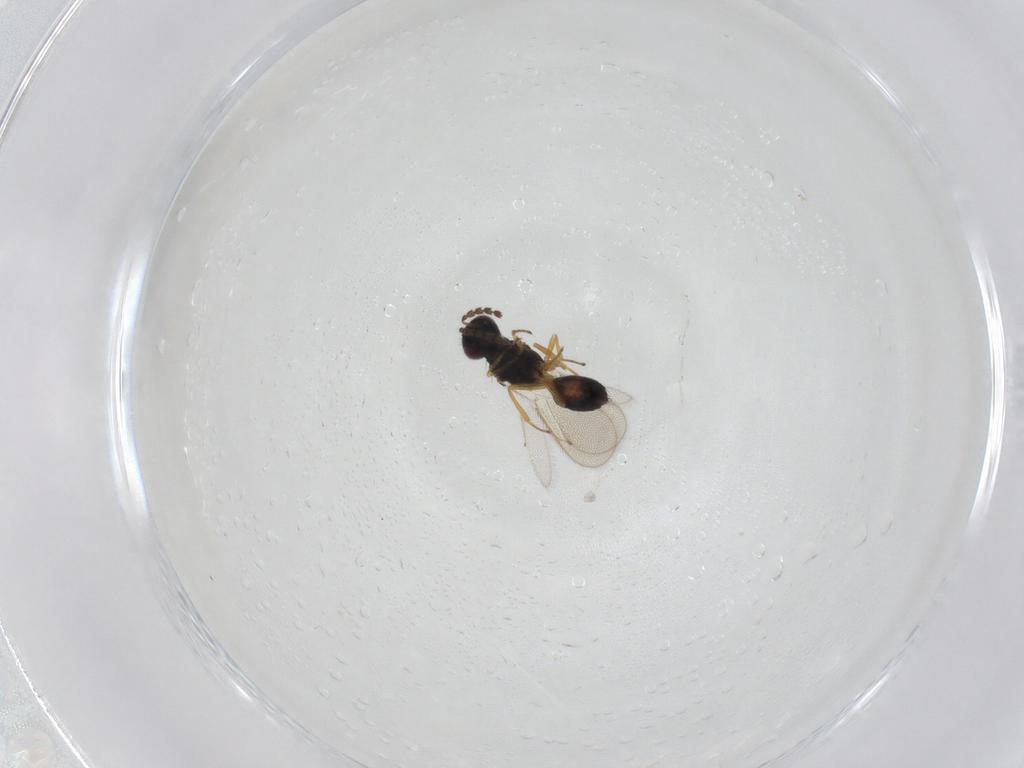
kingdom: Animalia
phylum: Arthropoda
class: Insecta
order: Hymenoptera
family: Eulophidae
